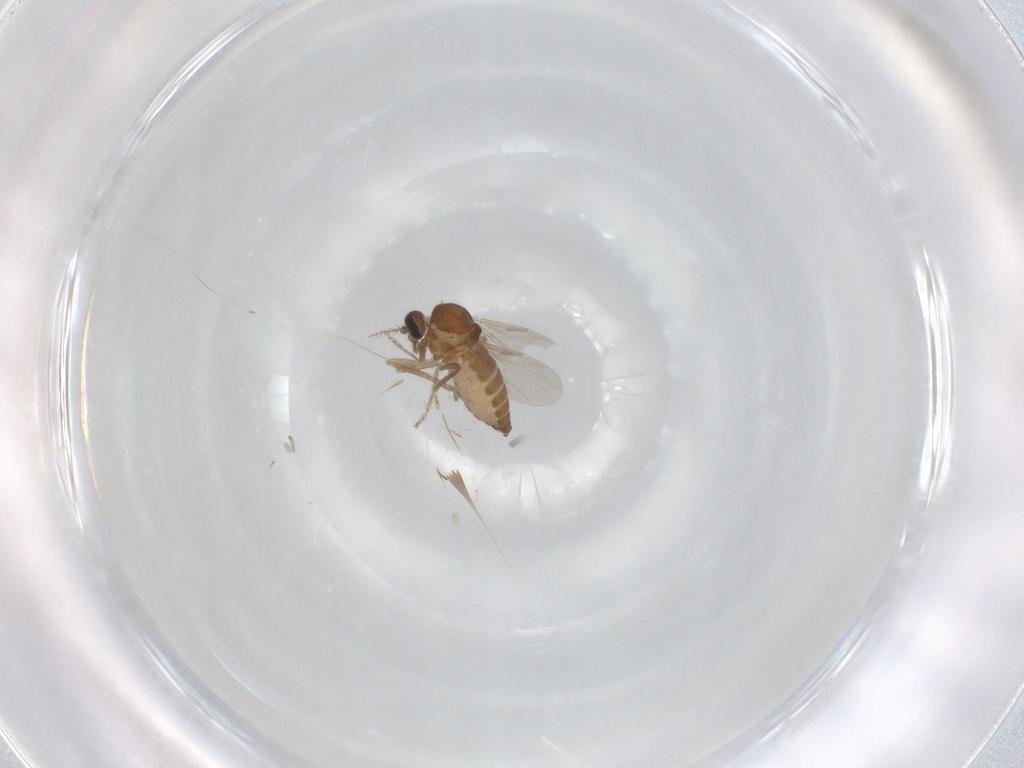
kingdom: Animalia
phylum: Arthropoda
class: Insecta
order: Diptera
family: Ceratopogonidae
